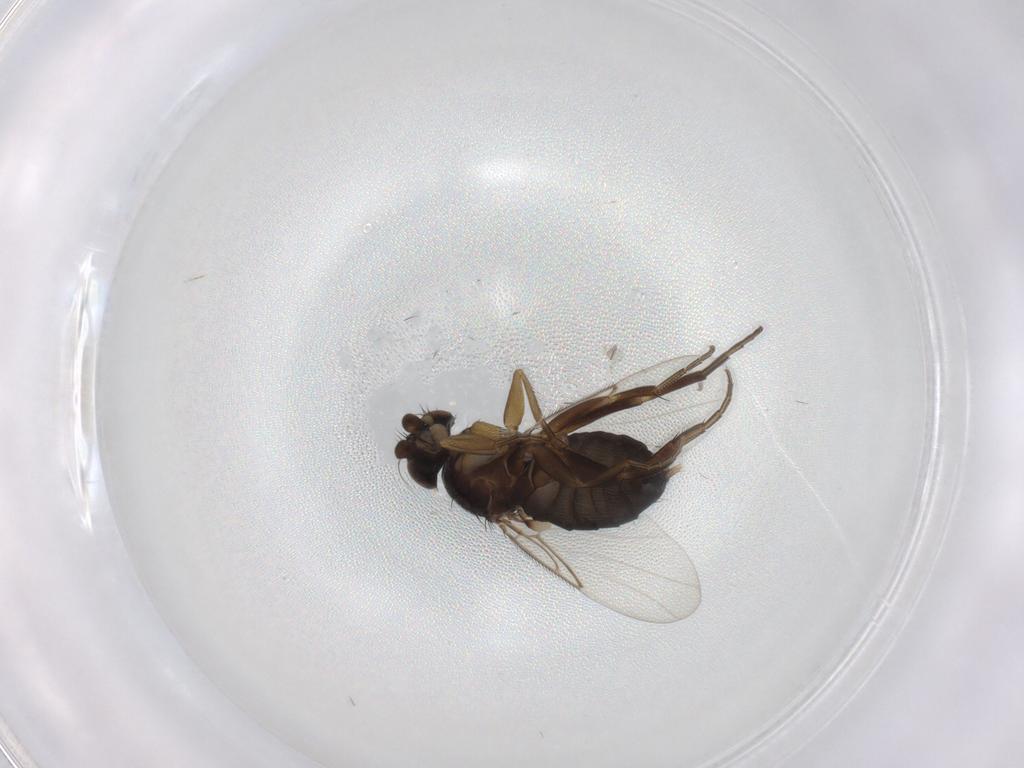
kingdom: Animalia
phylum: Arthropoda
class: Insecta
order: Diptera
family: Phoridae
